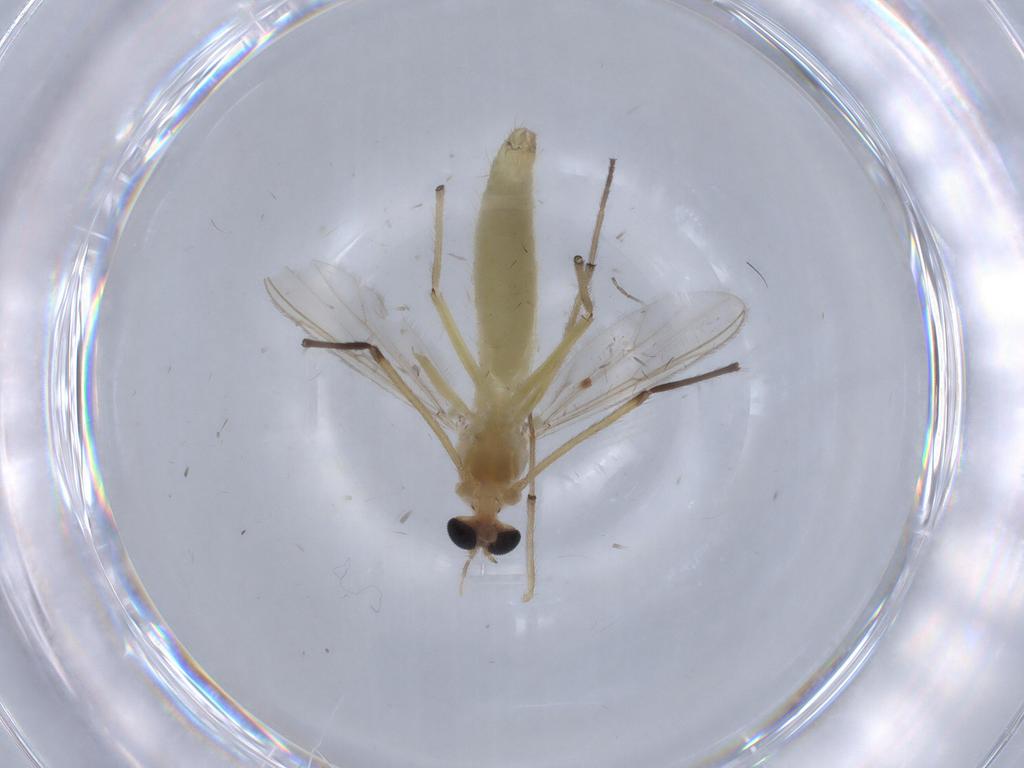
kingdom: Animalia
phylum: Arthropoda
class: Insecta
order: Diptera
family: Chironomidae
